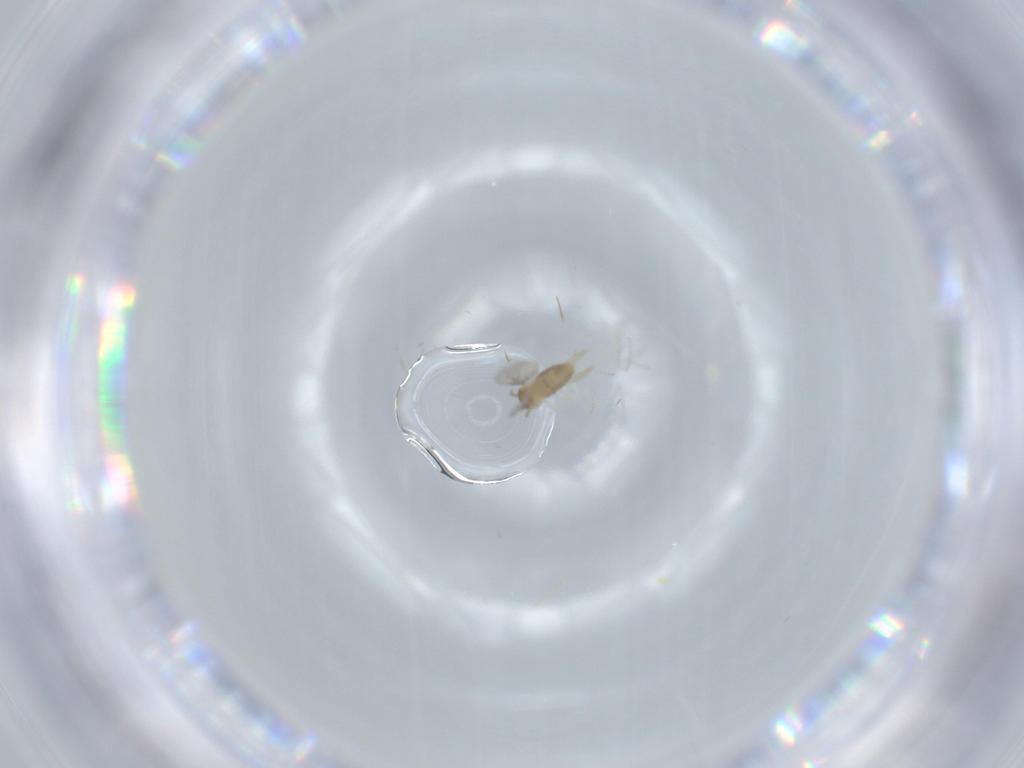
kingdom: Animalia
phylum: Arthropoda
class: Insecta
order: Diptera
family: Cecidomyiidae
